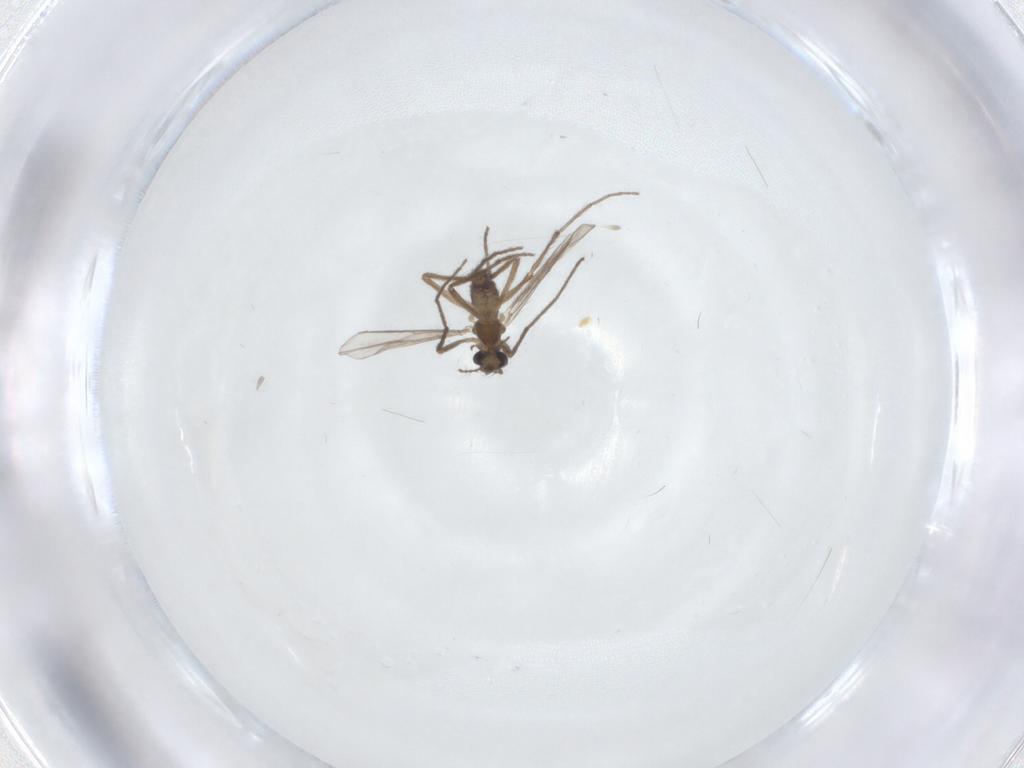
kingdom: Animalia
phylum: Arthropoda
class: Insecta
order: Diptera
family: Chironomidae
